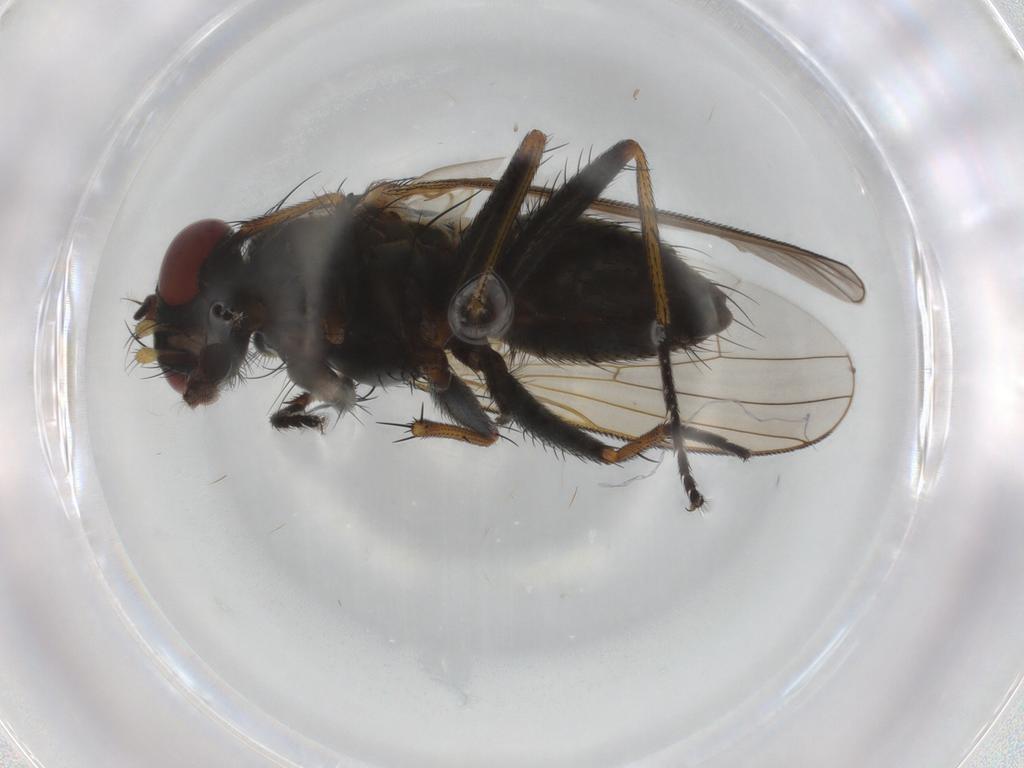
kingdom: Animalia
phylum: Arthropoda
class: Insecta
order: Diptera
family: Muscidae
